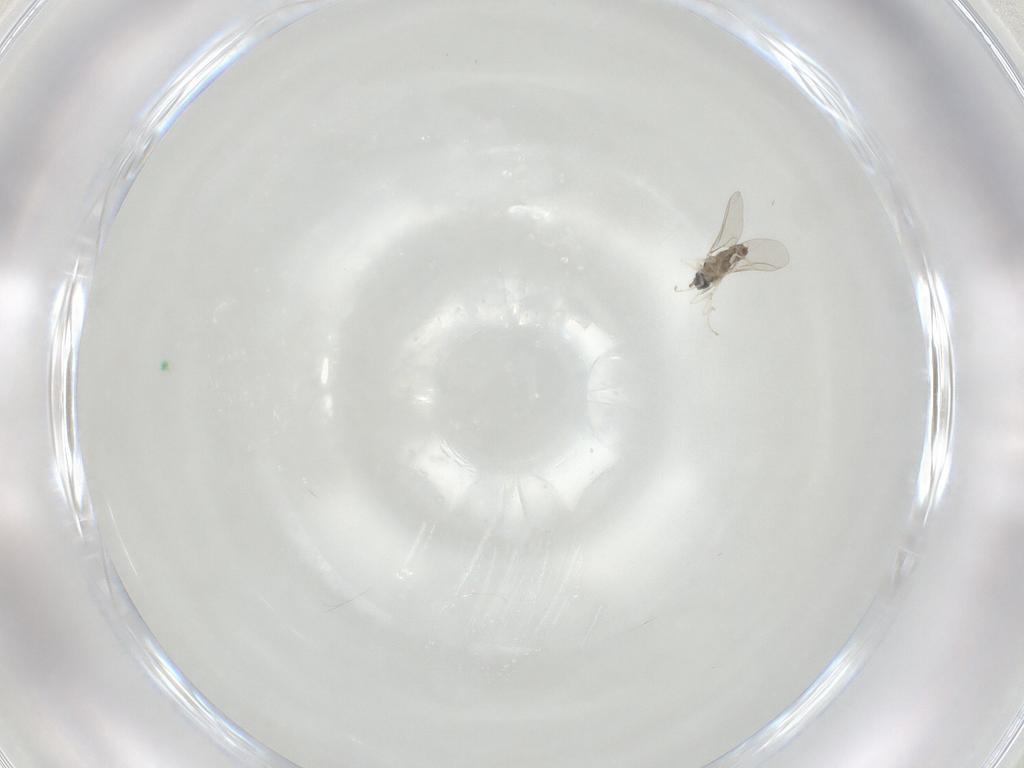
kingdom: Animalia
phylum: Arthropoda
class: Insecta
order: Diptera
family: Cecidomyiidae
